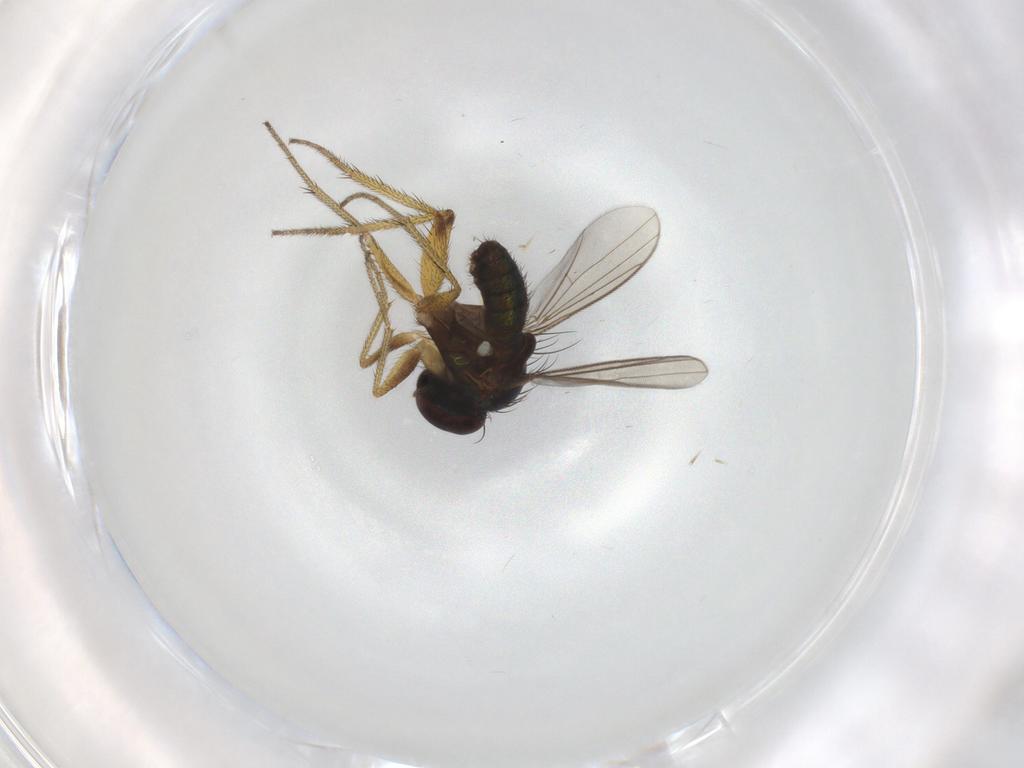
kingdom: Animalia
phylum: Arthropoda
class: Insecta
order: Diptera
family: Dolichopodidae
